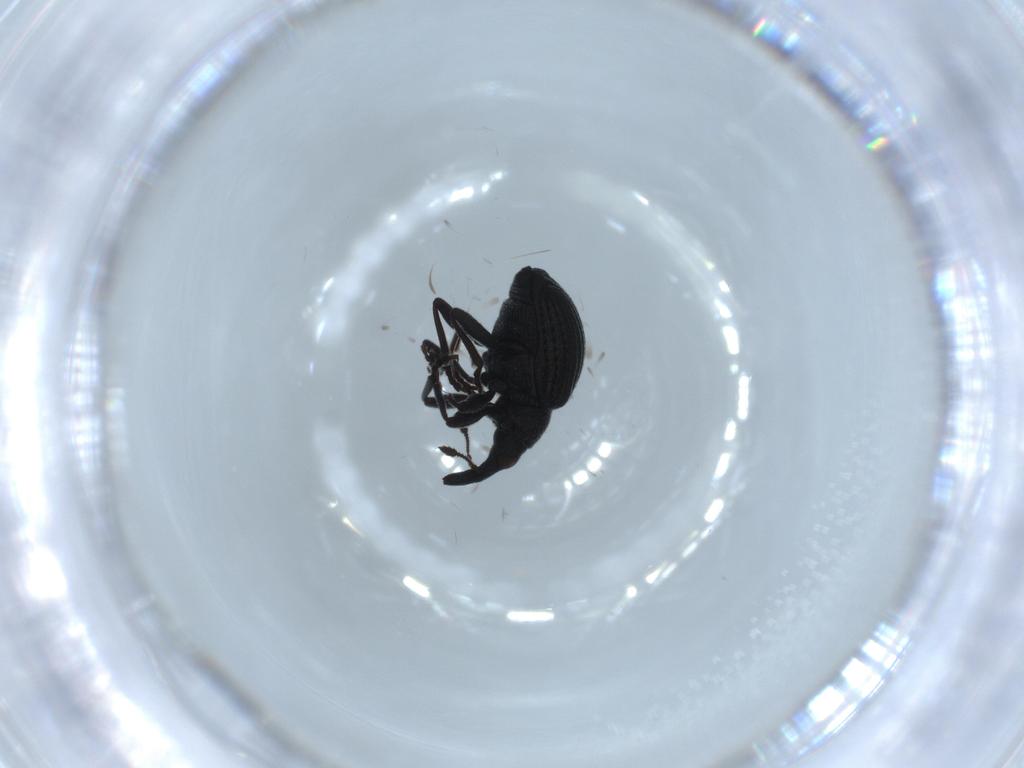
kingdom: Animalia
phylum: Arthropoda
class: Insecta
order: Coleoptera
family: Brentidae
